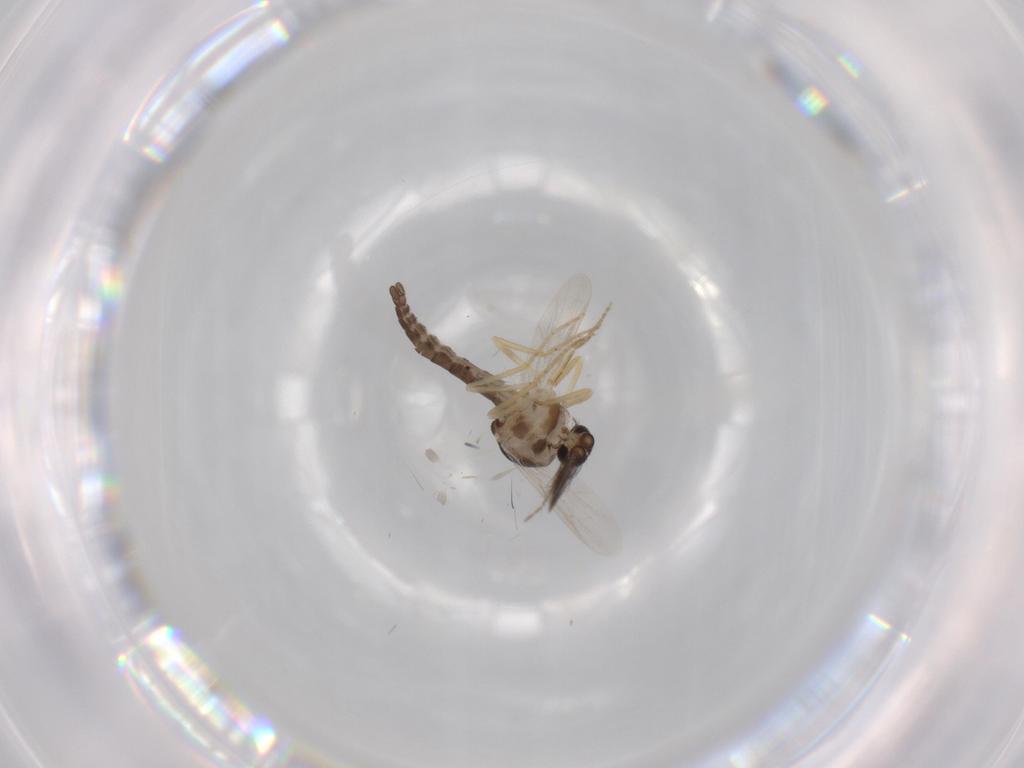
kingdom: Animalia
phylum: Arthropoda
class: Insecta
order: Diptera
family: Ceratopogonidae
